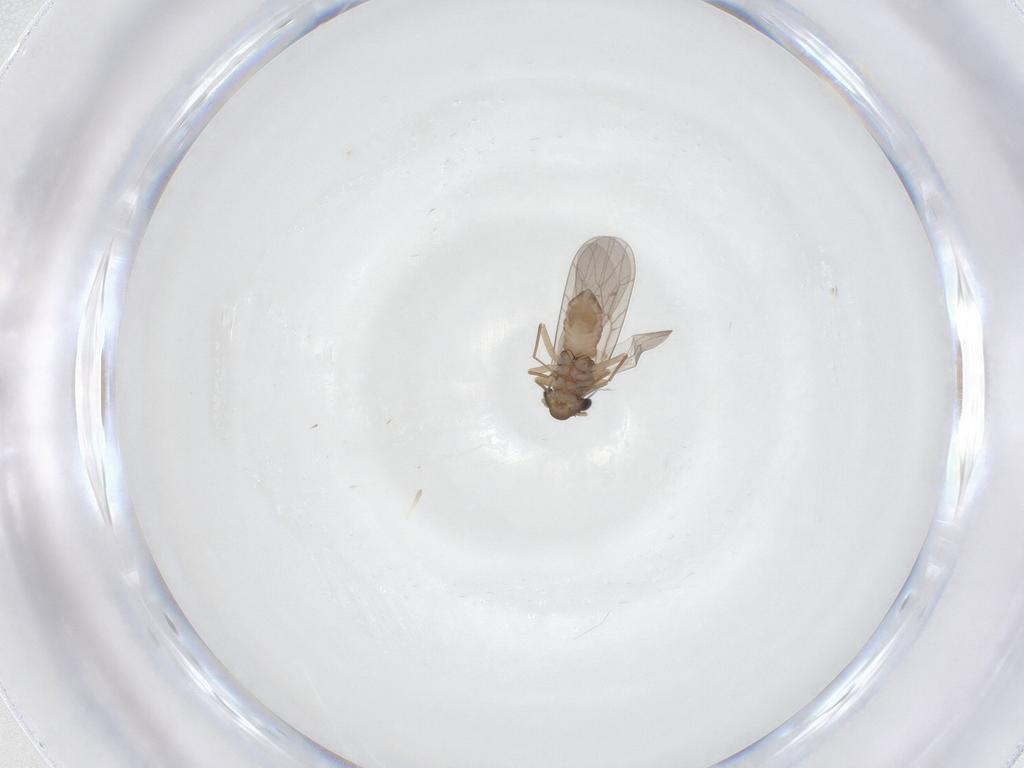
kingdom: Animalia
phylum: Arthropoda
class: Insecta
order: Psocodea
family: Lepidopsocidae
